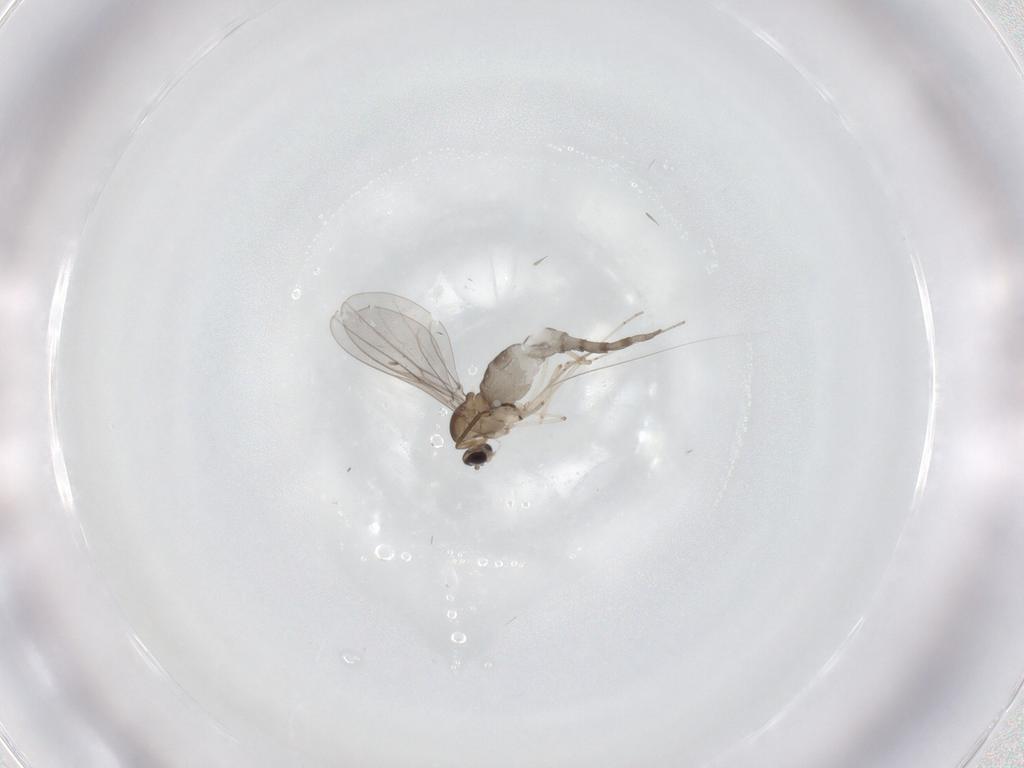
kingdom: Animalia
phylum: Arthropoda
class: Insecta
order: Diptera
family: Cecidomyiidae
